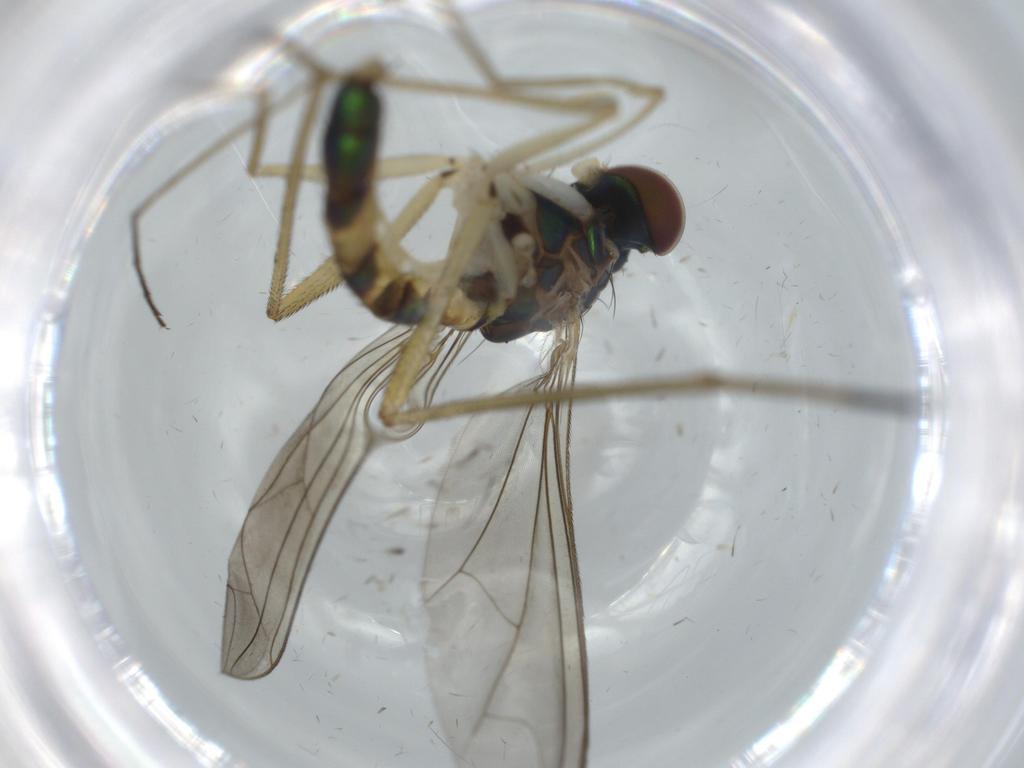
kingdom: Animalia
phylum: Arthropoda
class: Insecta
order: Diptera
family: Dolichopodidae
